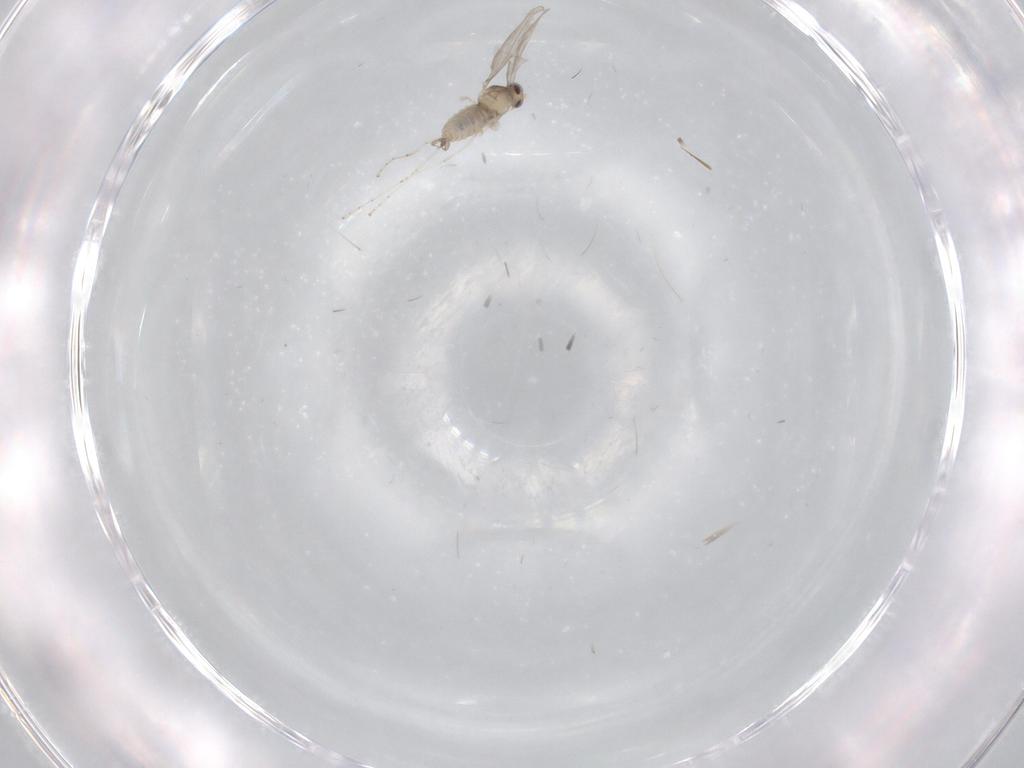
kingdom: Animalia
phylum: Arthropoda
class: Insecta
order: Diptera
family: Sciaridae
